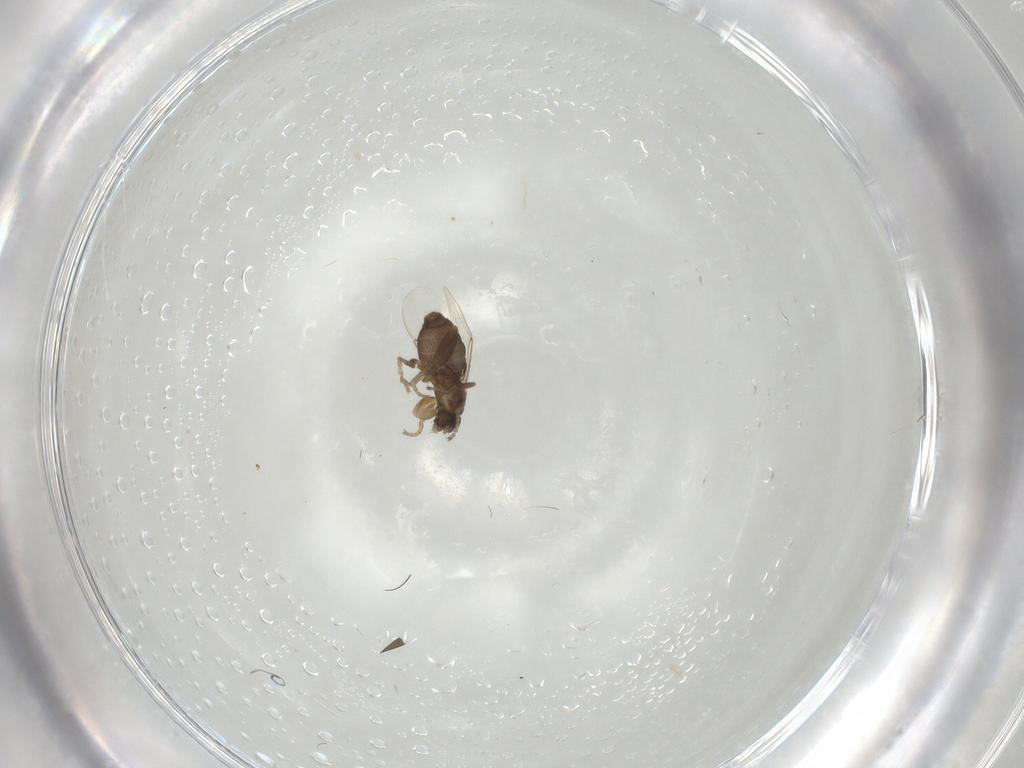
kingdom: Animalia
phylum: Arthropoda
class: Insecta
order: Diptera
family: Phoridae
